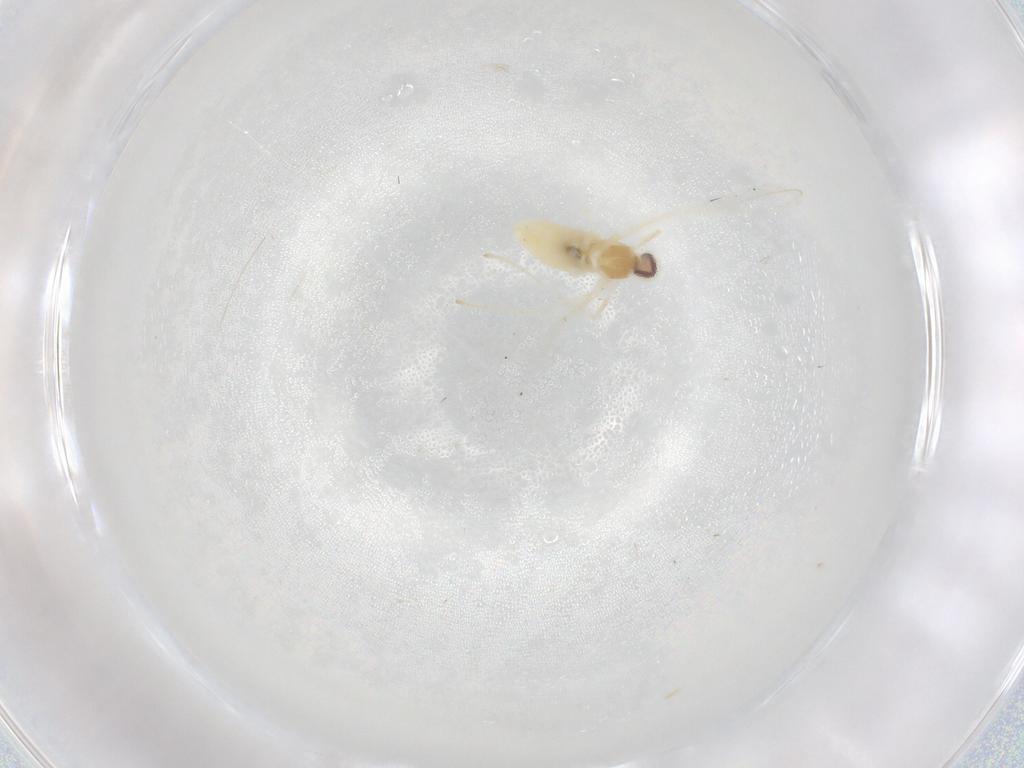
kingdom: Animalia
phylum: Arthropoda
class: Insecta
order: Diptera
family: Cecidomyiidae
